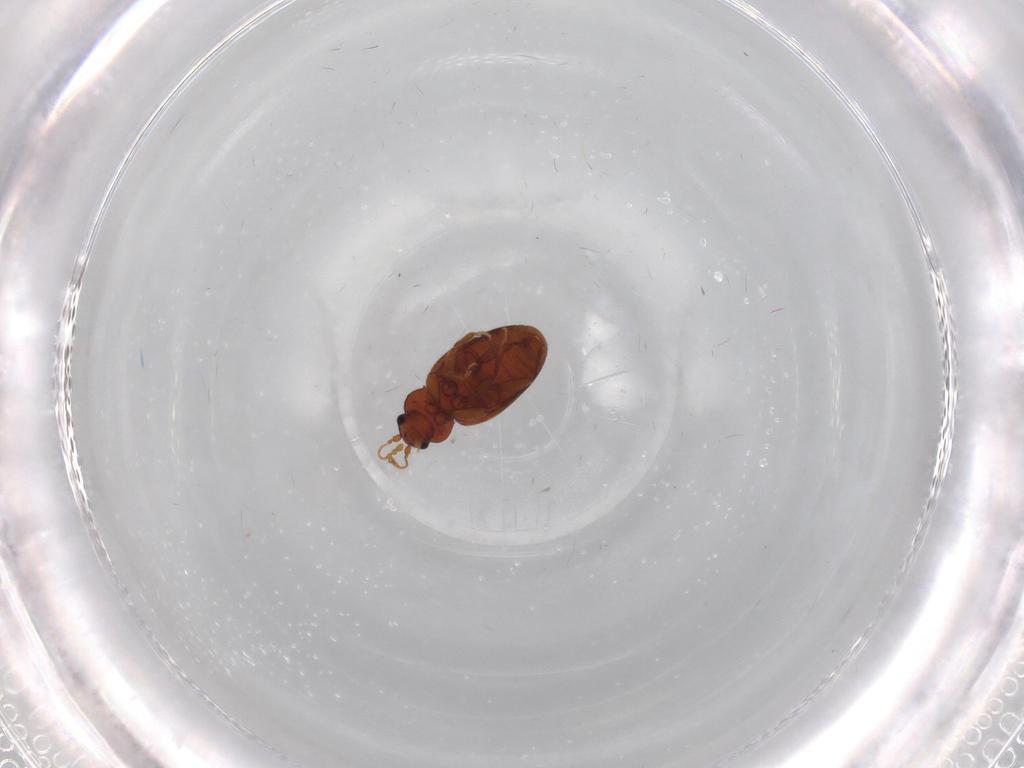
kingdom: Animalia
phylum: Arthropoda
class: Insecta
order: Coleoptera
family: Latridiidae
